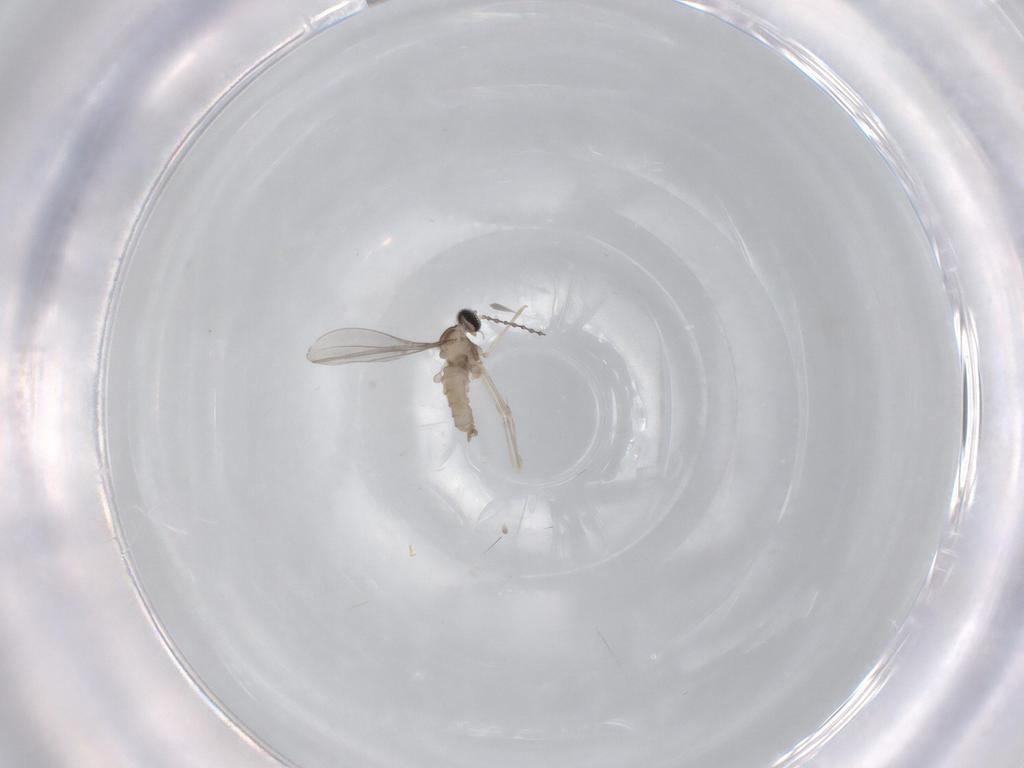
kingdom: Animalia
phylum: Arthropoda
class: Insecta
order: Diptera
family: Cecidomyiidae
